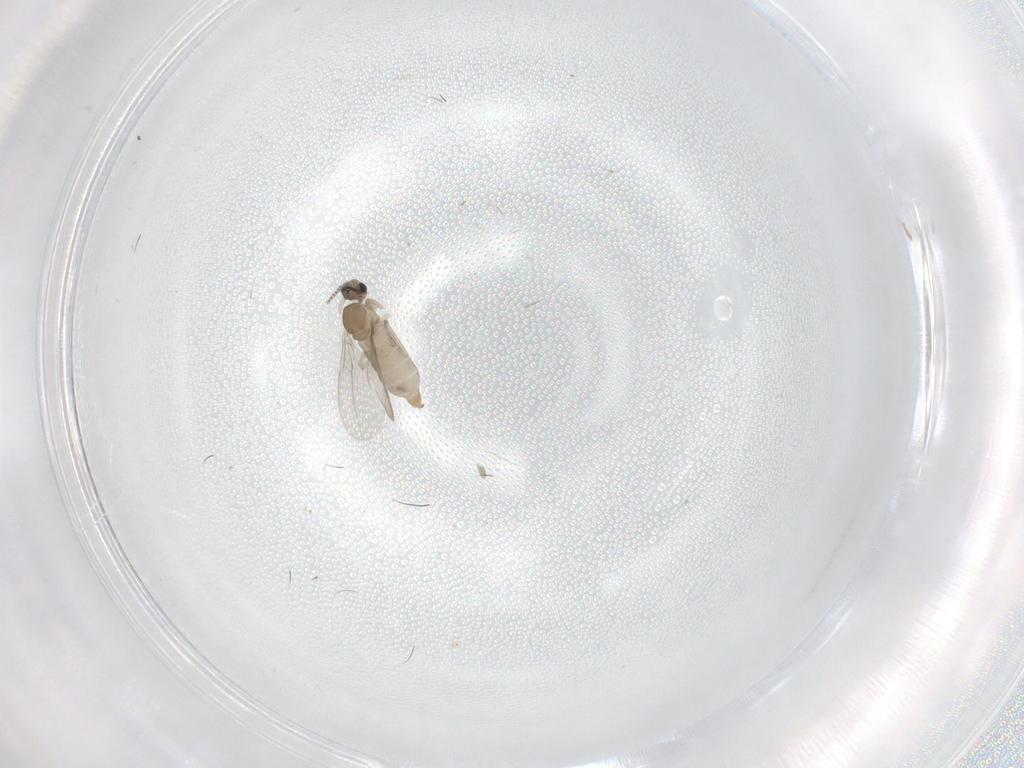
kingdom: Animalia
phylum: Arthropoda
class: Insecta
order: Diptera
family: Cecidomyiidae
